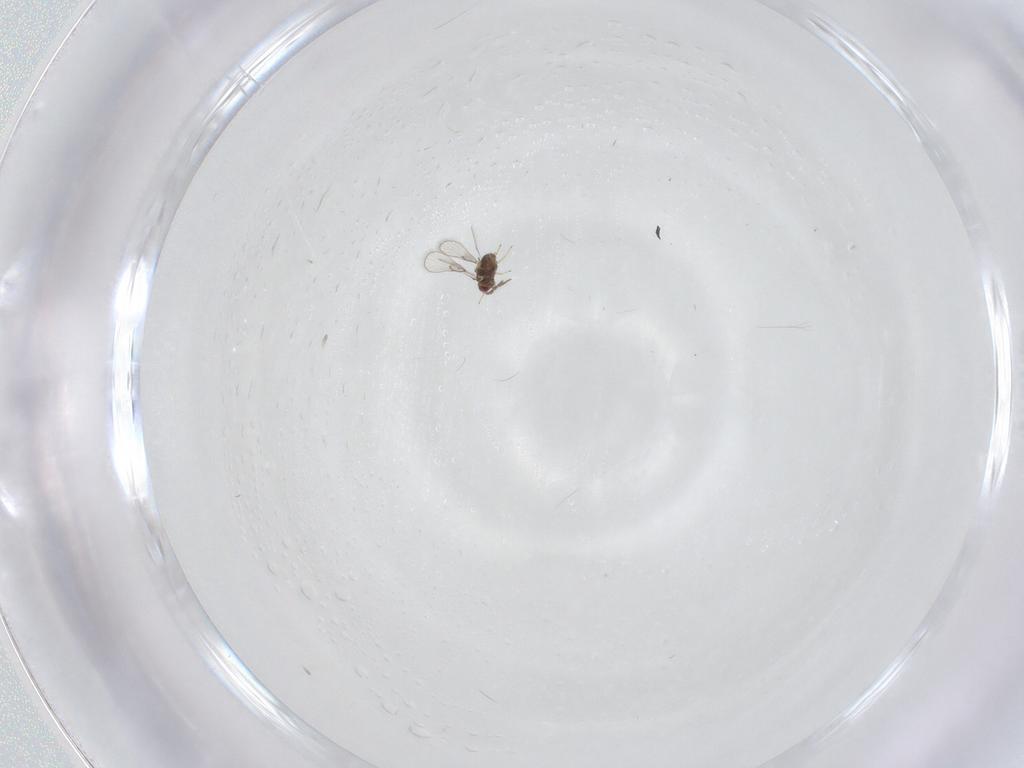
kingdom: Animalia
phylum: Arthropoda
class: Insecta
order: Hymenoptera
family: Trichogrammatidae
